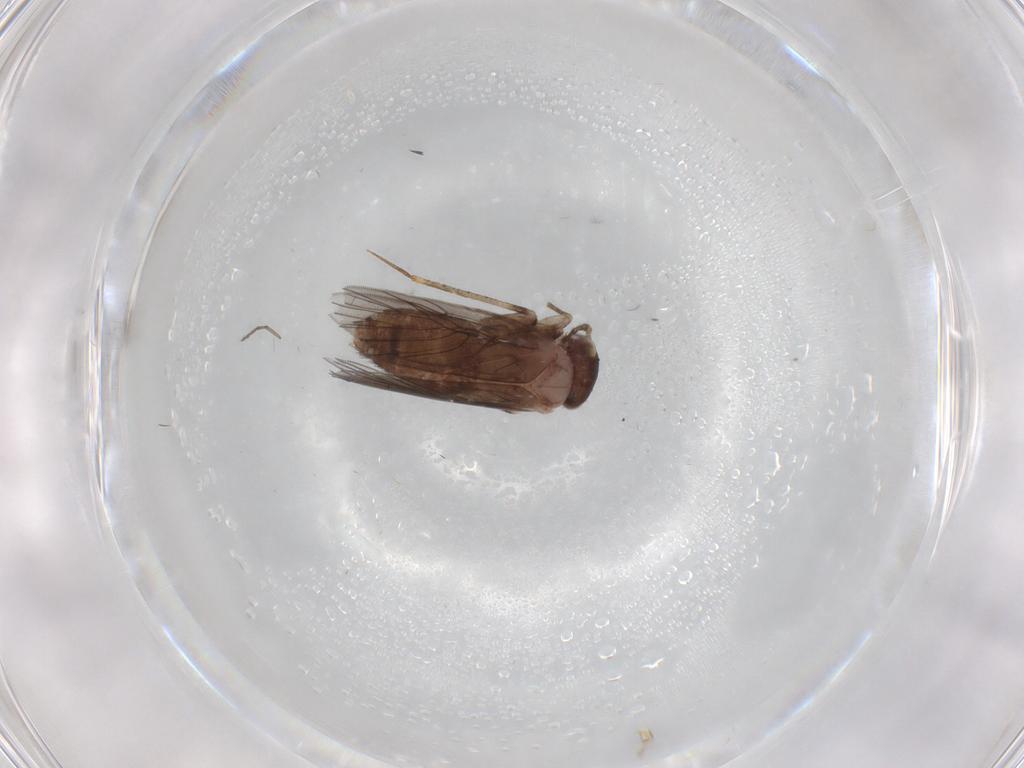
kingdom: Animalia
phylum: Arthropoda
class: Insecta
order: Psocodea
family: Lepidopsocidae
